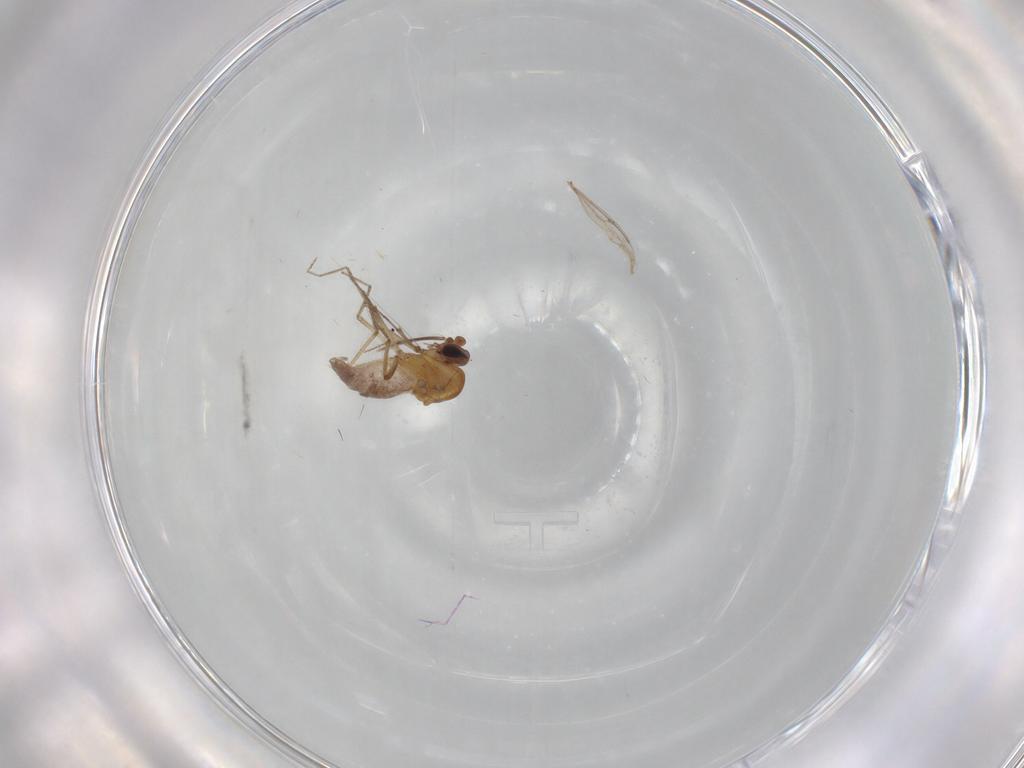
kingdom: Animalia
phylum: Arthropoda
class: Insecta
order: Diptera
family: Ceratopogonidae
